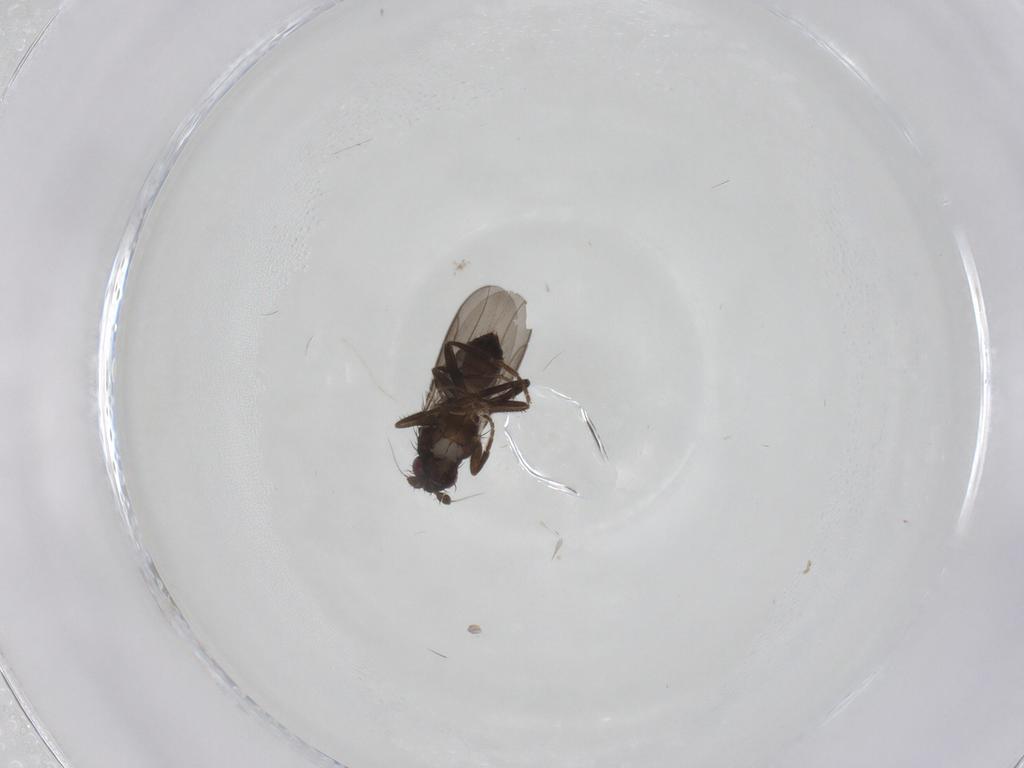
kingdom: Animalia
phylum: Arthropoda
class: Insecta
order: Diptera
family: Sphaeroceridae
